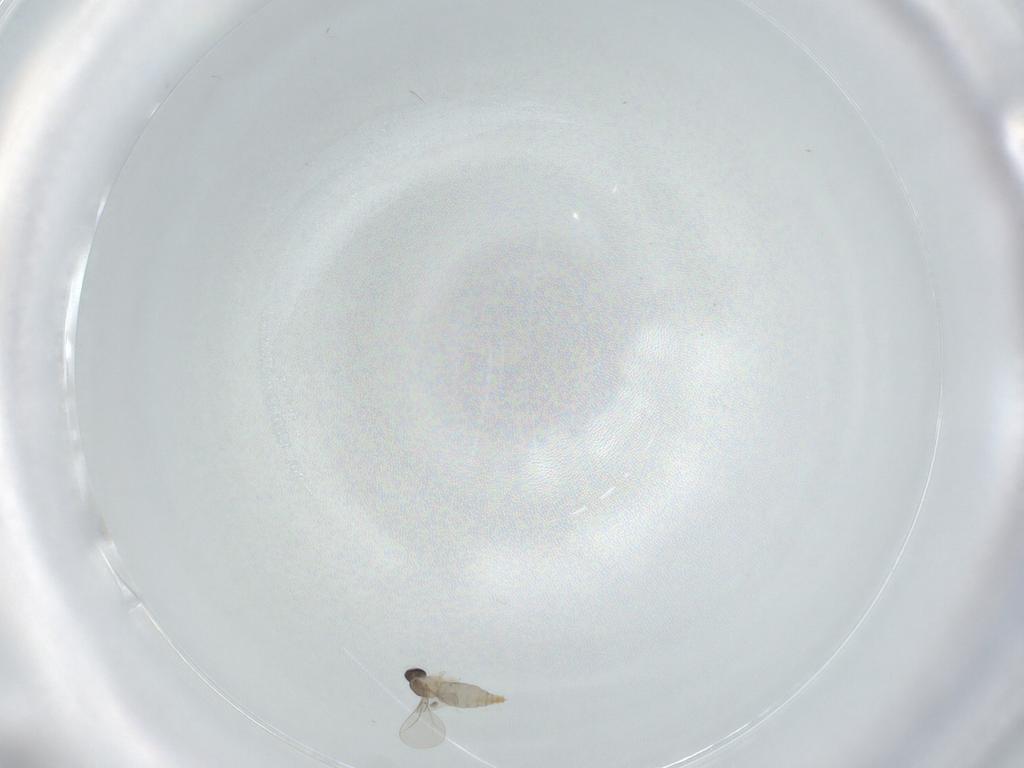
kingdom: Animalia
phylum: Arthropoda
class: Insecta
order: Diptera
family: Cecidomyiidae
